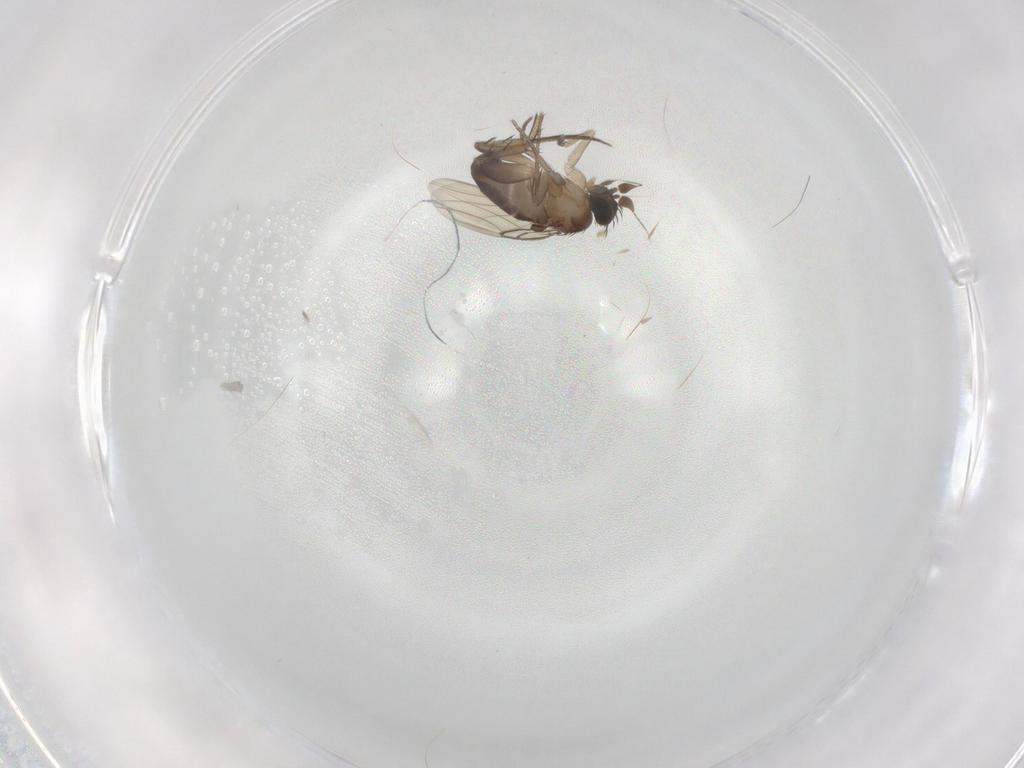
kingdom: Animalia
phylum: Arthropoda
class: Insecta
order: Diptera
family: Phoridae
